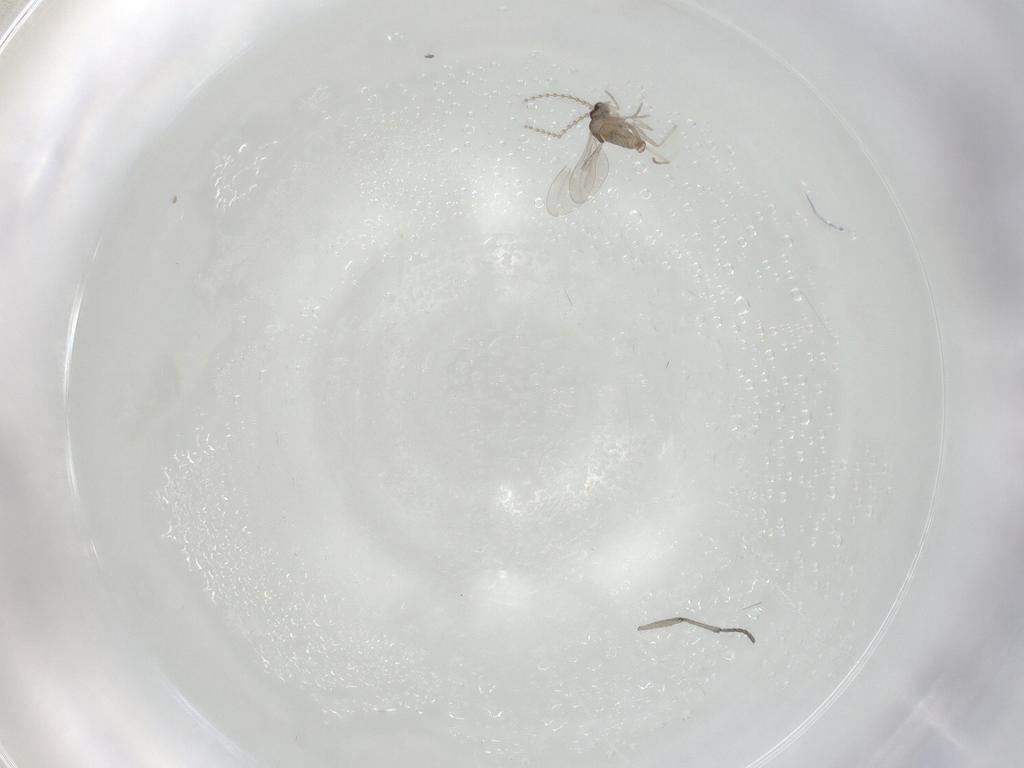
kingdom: Animalia
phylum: Arthropoda
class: Insecta
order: Diptera
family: Sciaridae
